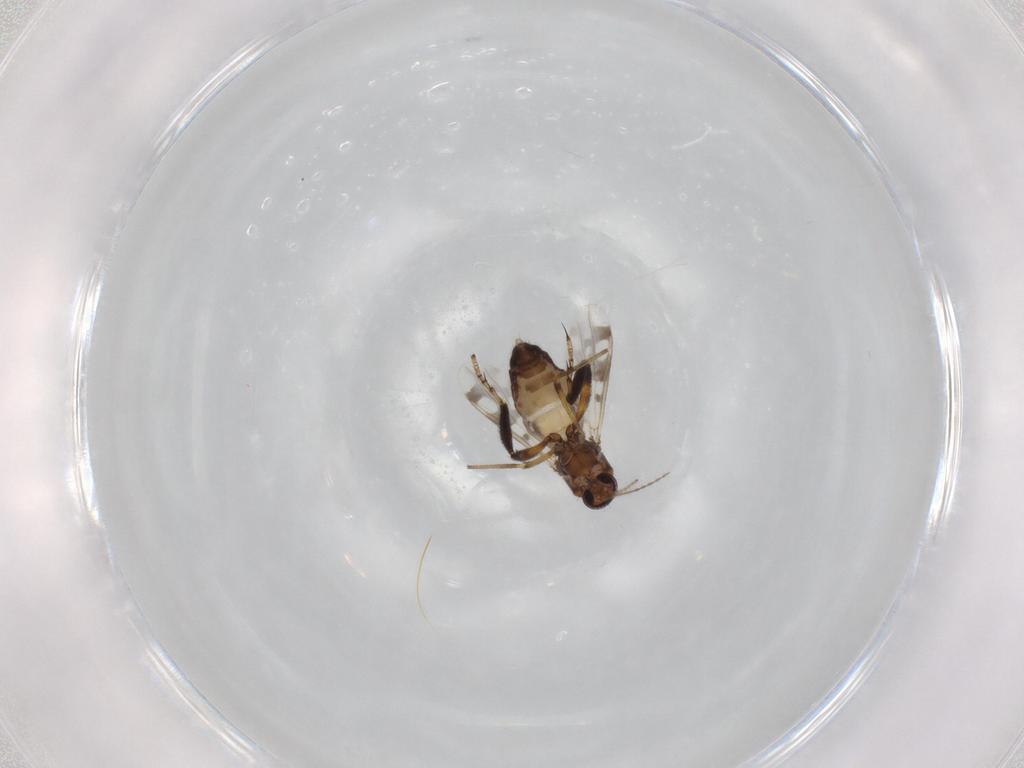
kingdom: Animalia
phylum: Arthropoda
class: Insecta
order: Diptera
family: Ceratopogonidae
